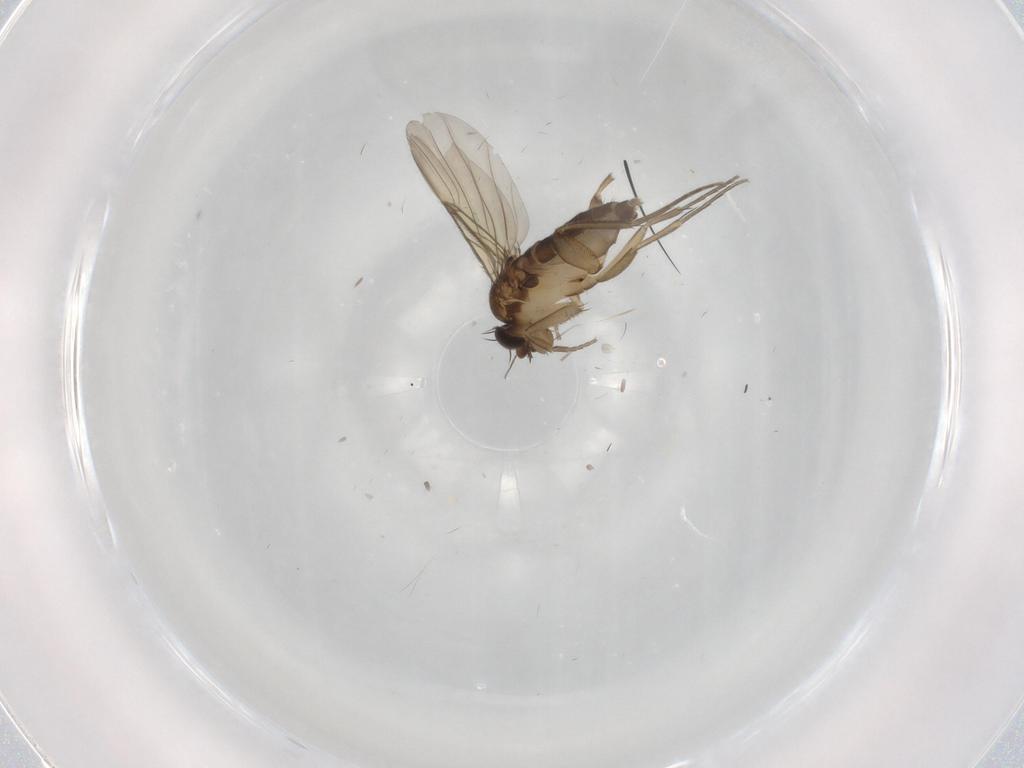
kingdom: Animalia
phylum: Arthropoda
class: Insecta
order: Diptera
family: Phoridae
